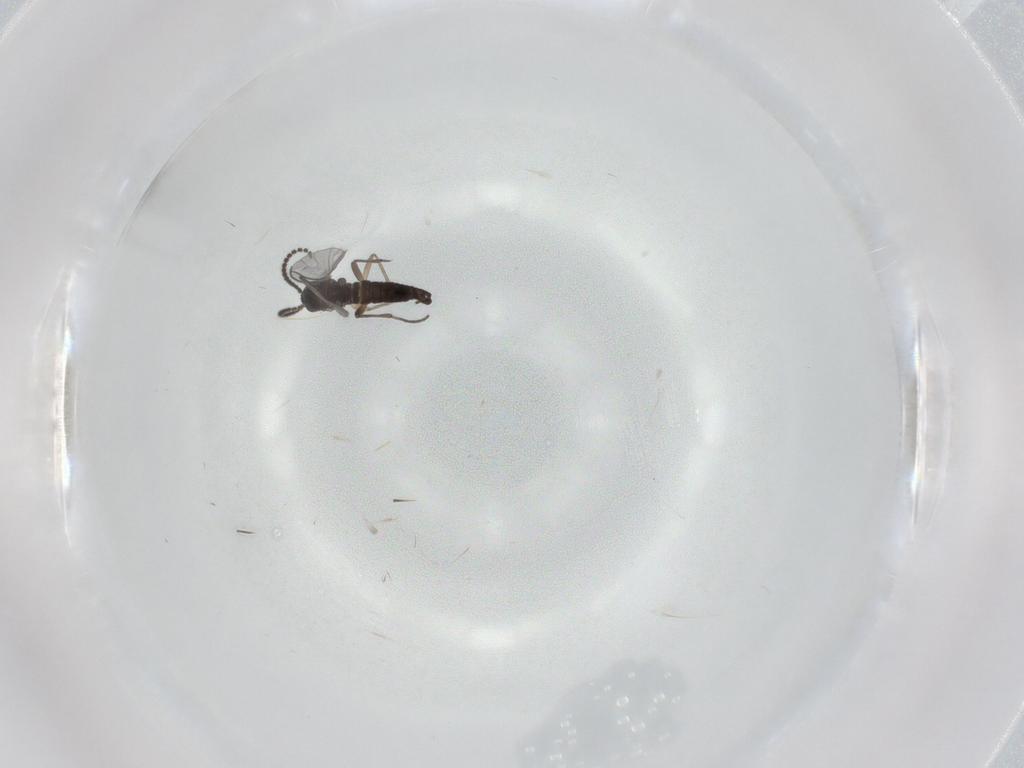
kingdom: Animalia
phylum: Arthropoda
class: Insecta
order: Diptera
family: Sciaridae
